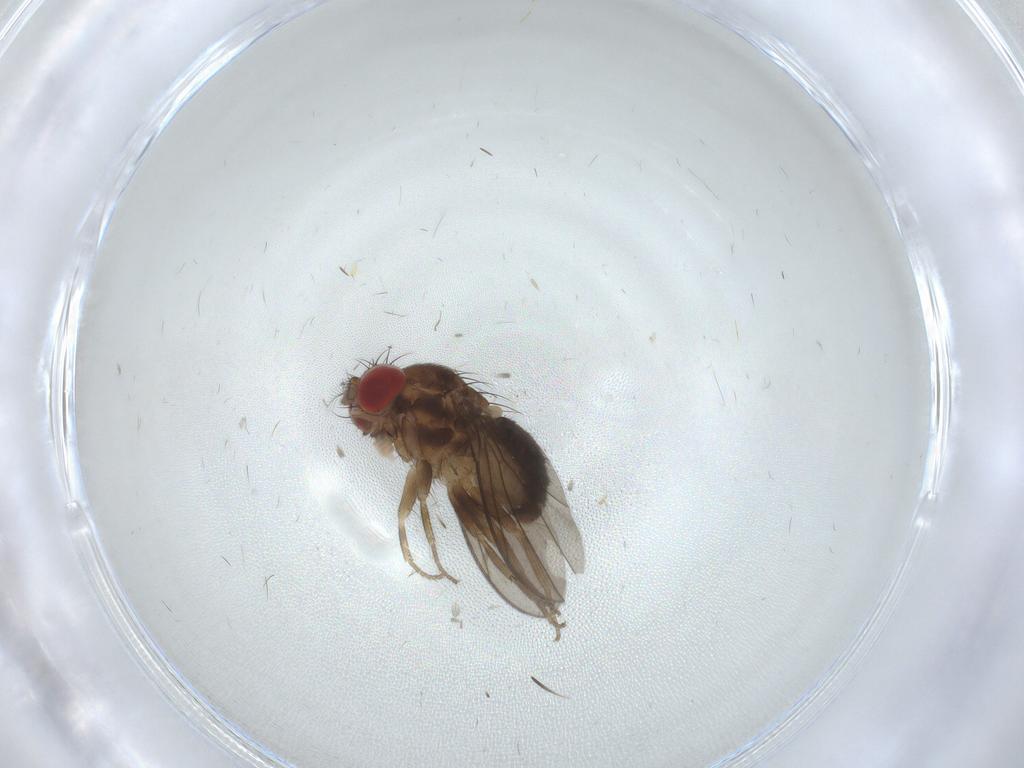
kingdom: Animalia
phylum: Arthropoda
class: Insecta
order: Diptera
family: Drosophilidae
